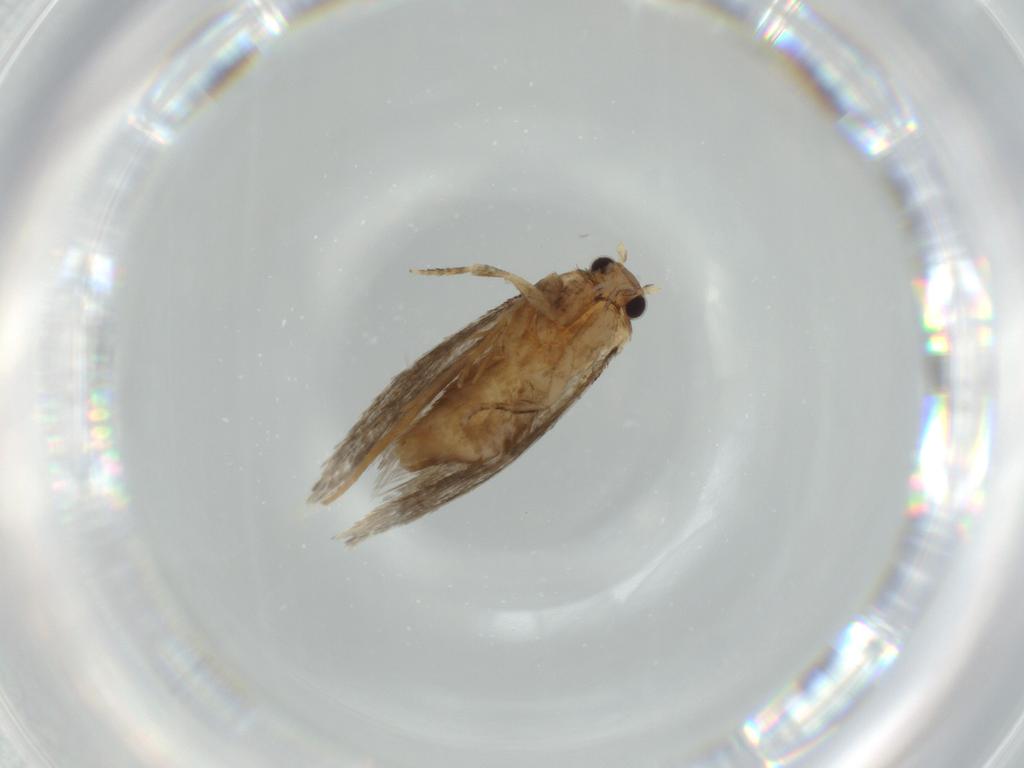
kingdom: Animalia
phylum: Arthropoda
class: Insecta
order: Lepidoptera
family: Tineidae
